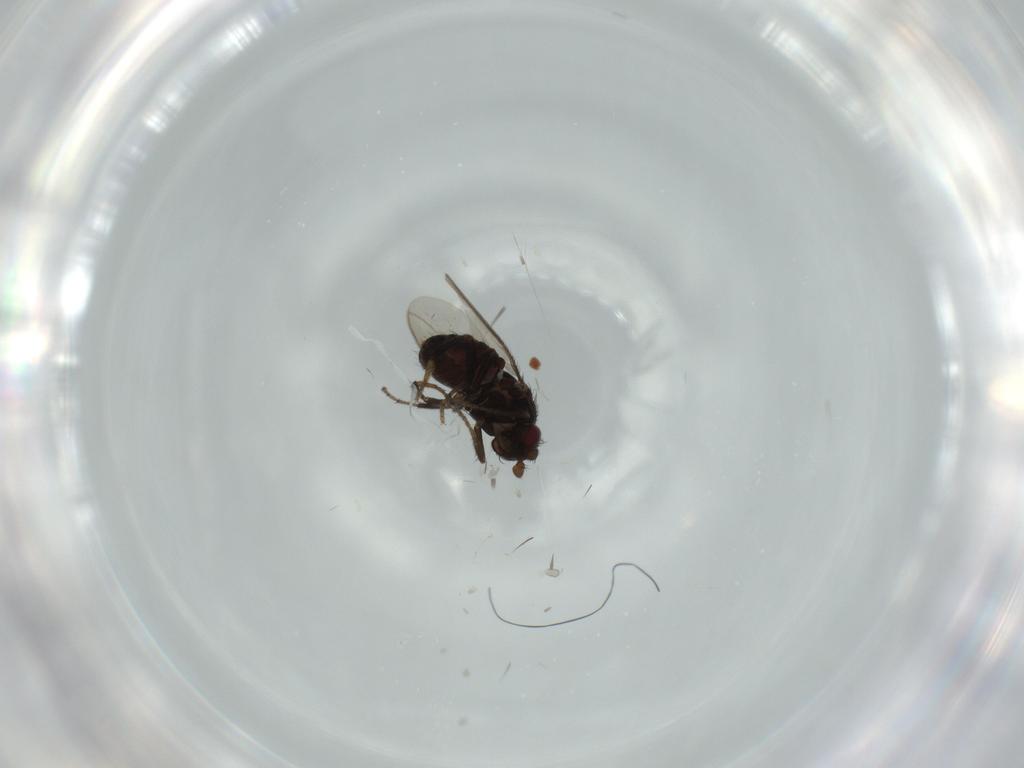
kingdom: Animalia
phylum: Arthropoda
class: Insecta
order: Diptera
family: Sphaeroceridae
